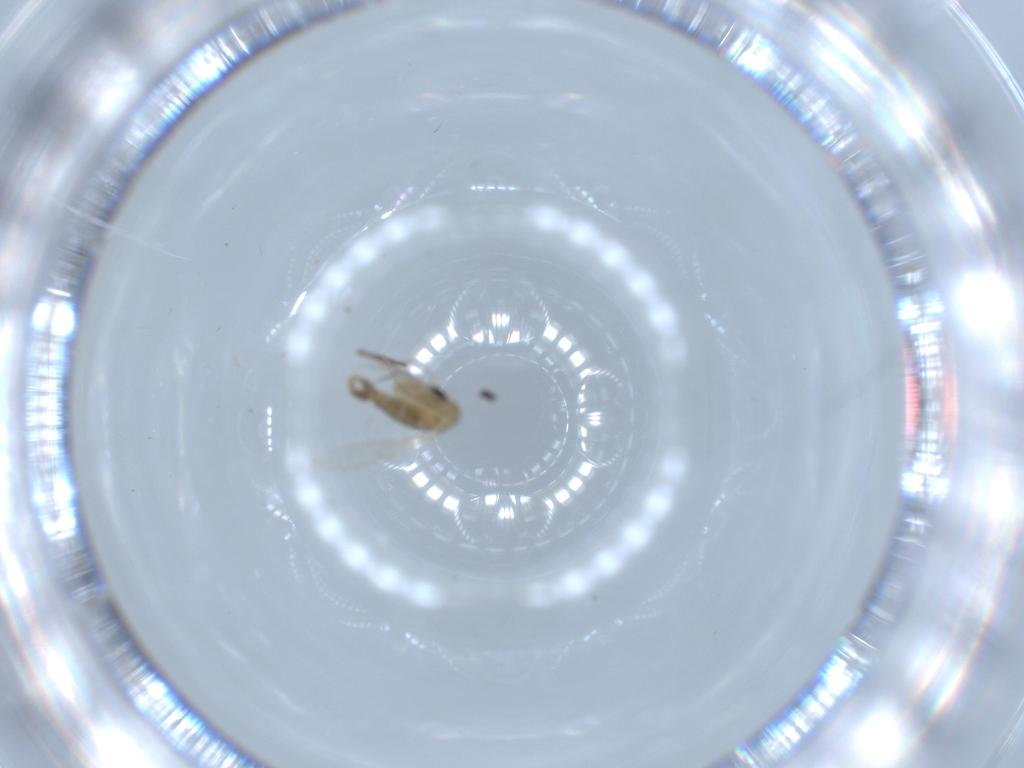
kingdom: Animalia
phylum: Arthropoda
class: Insecta
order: Diptera
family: Psychodidae
